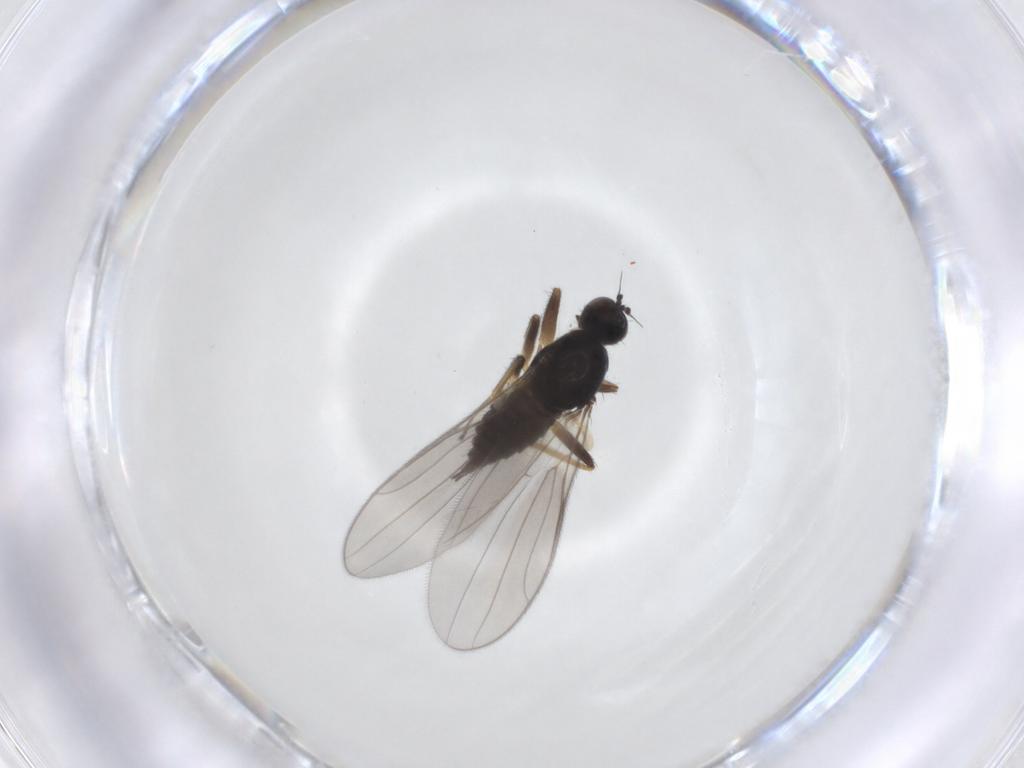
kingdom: Animalia
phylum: Arthropoda
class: Insecta
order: Diptera
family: Hybotidae
